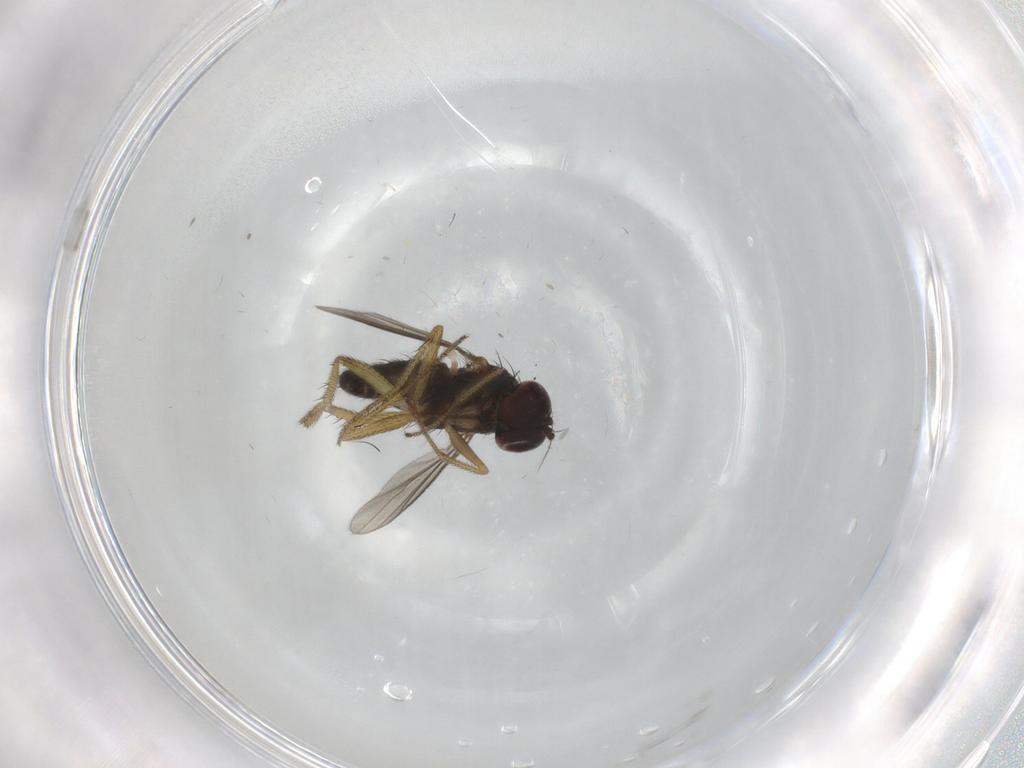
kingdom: Animalia
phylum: Arthropoda
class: Insecta
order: Diptera
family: Dolichopodidae
